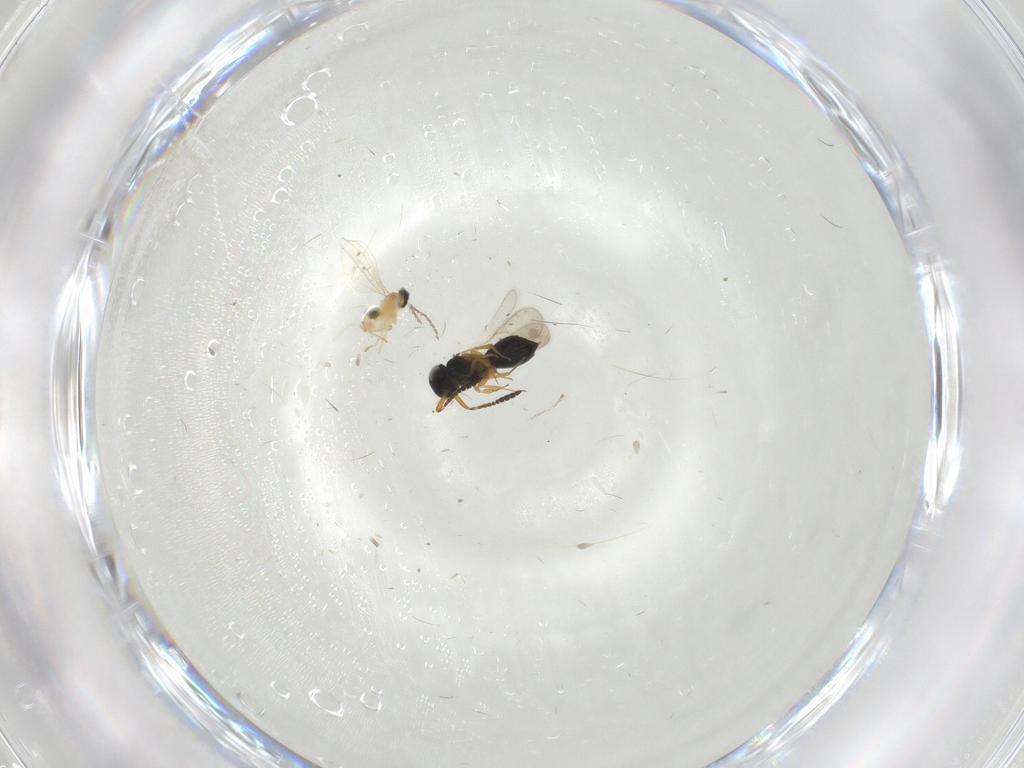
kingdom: Animalia
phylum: Arthropoda
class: Insecta
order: Hymenoptera
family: Scelionidae
